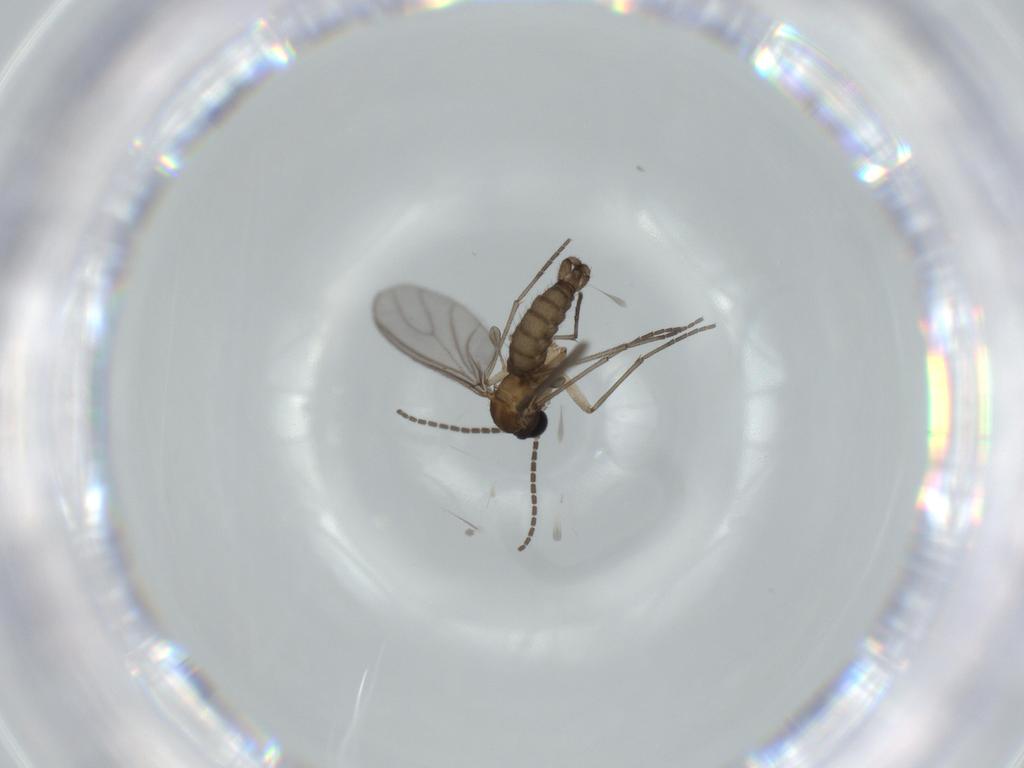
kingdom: Animalia
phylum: Arthropoda
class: Insecta
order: Diptera
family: Sciaridae
